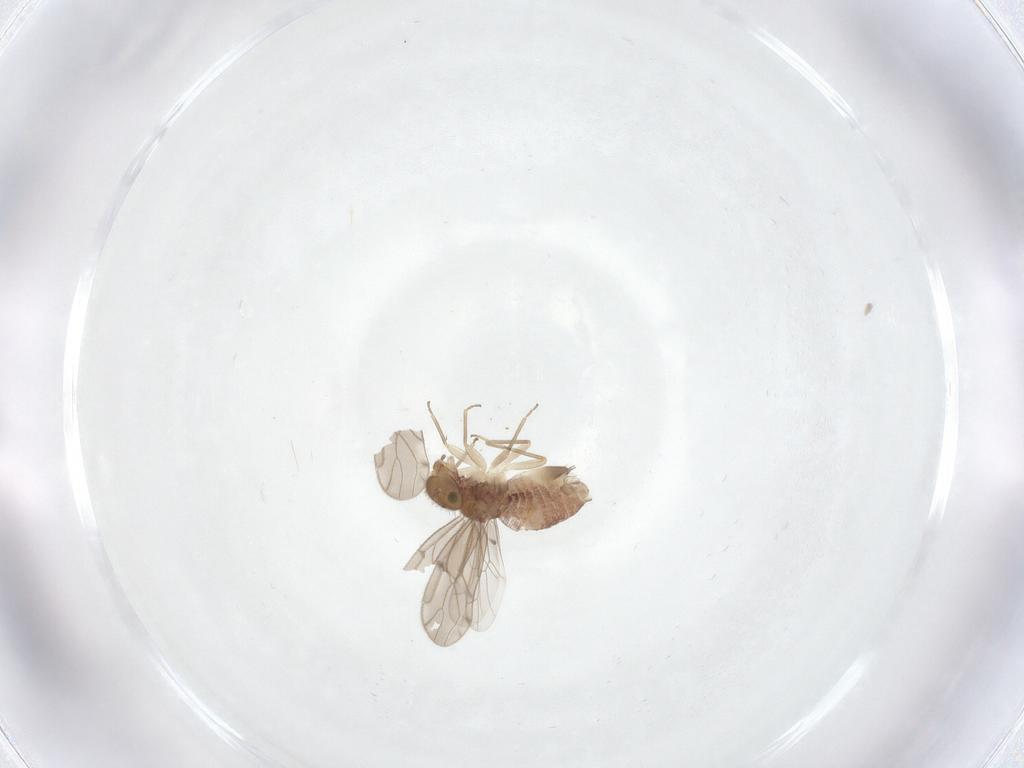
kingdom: Animalia
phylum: Arthropoda
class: Insecta
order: Psocodea
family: Ectopsocidae
